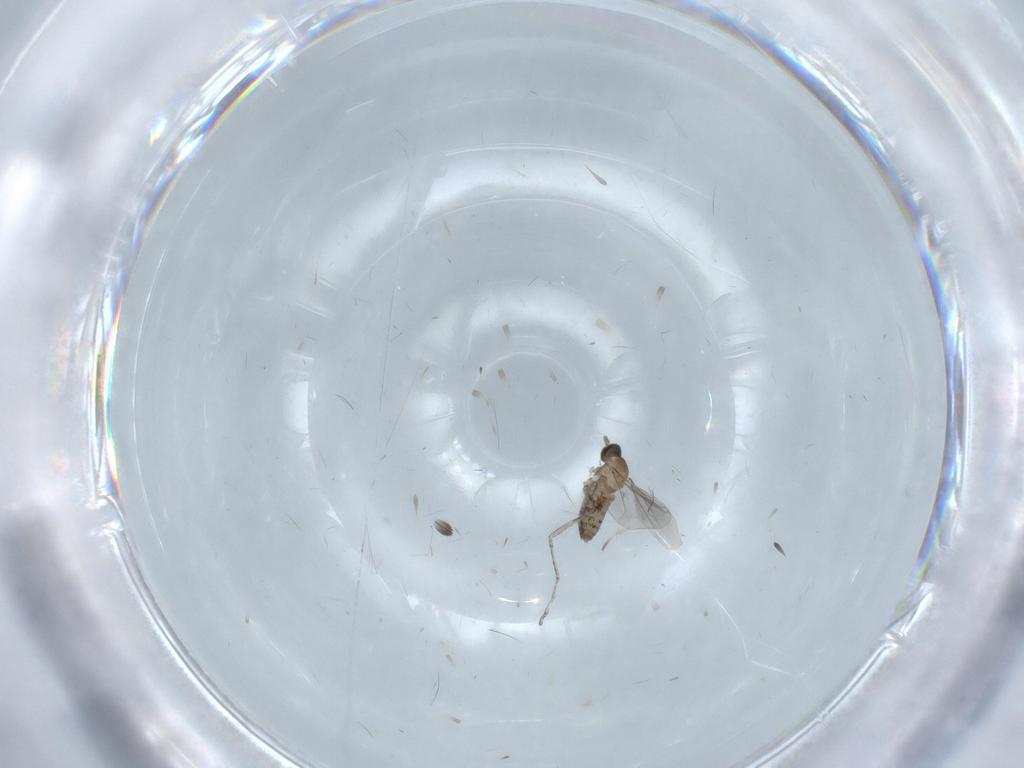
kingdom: Animalia
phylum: Arthropoda
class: Insecta
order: Diptera
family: Psychodidae
